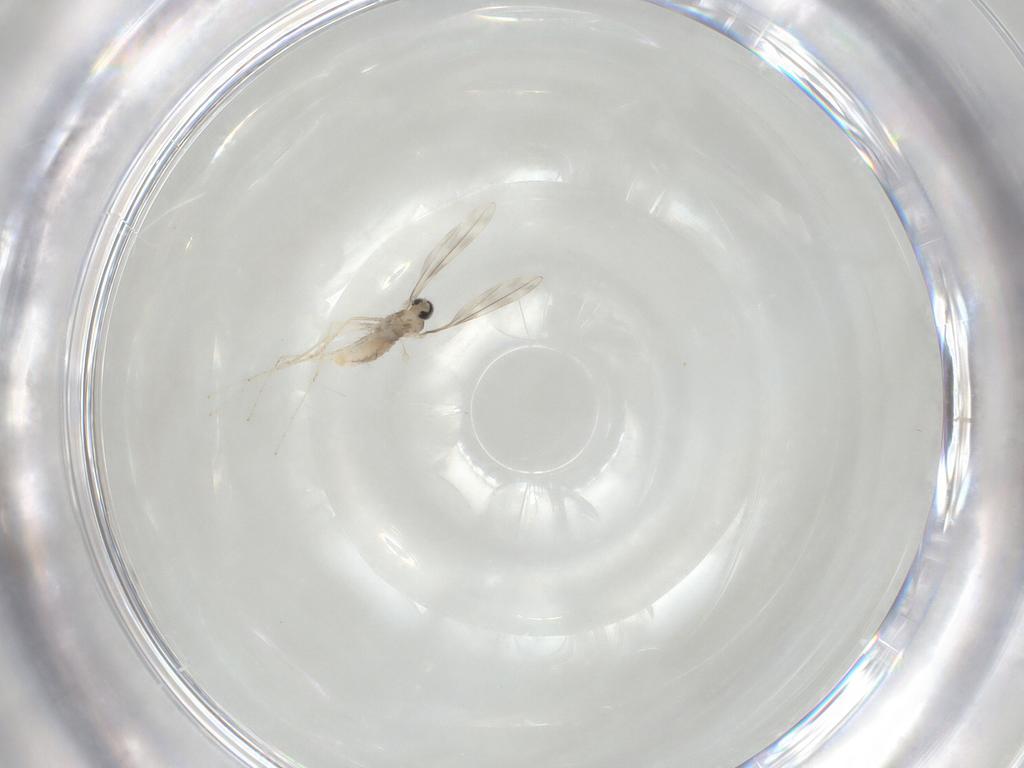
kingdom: Animalia
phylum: Arthropoda
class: Insecta
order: Diptera
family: Cecidomyiidae
